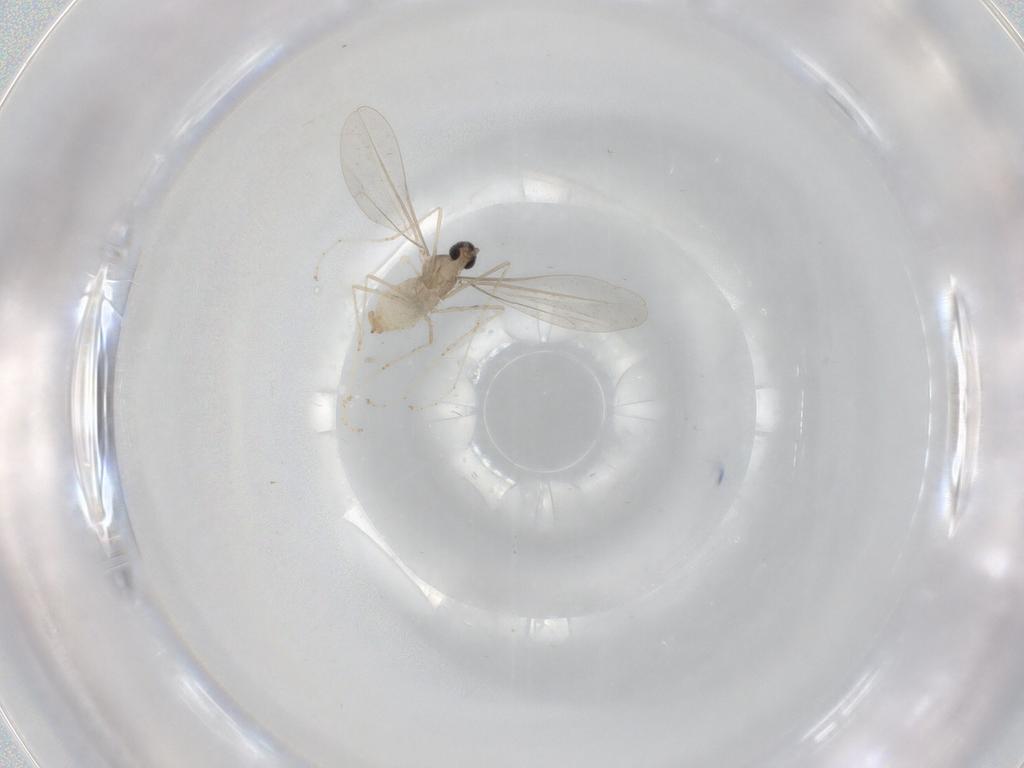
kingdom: Animalia
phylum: Arthropoda
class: Insecta
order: Diptera
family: Cecidomyiidae
